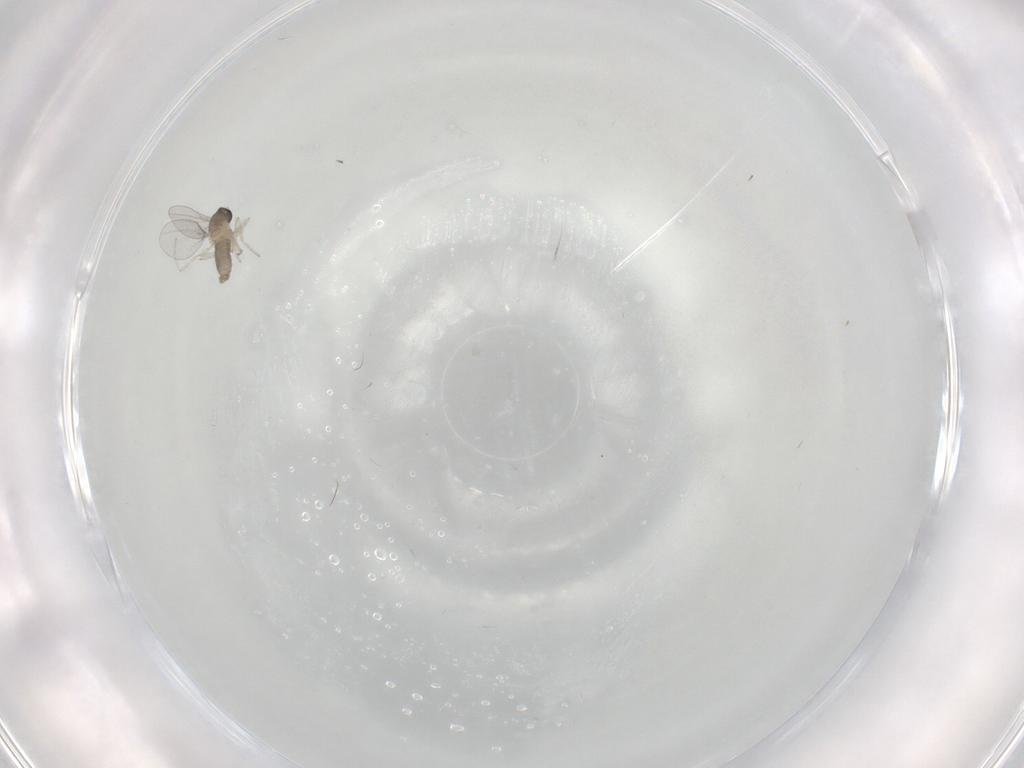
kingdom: Animalia
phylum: Arthropoda
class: Insecta
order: Diptera
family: Cecidomyiidae
